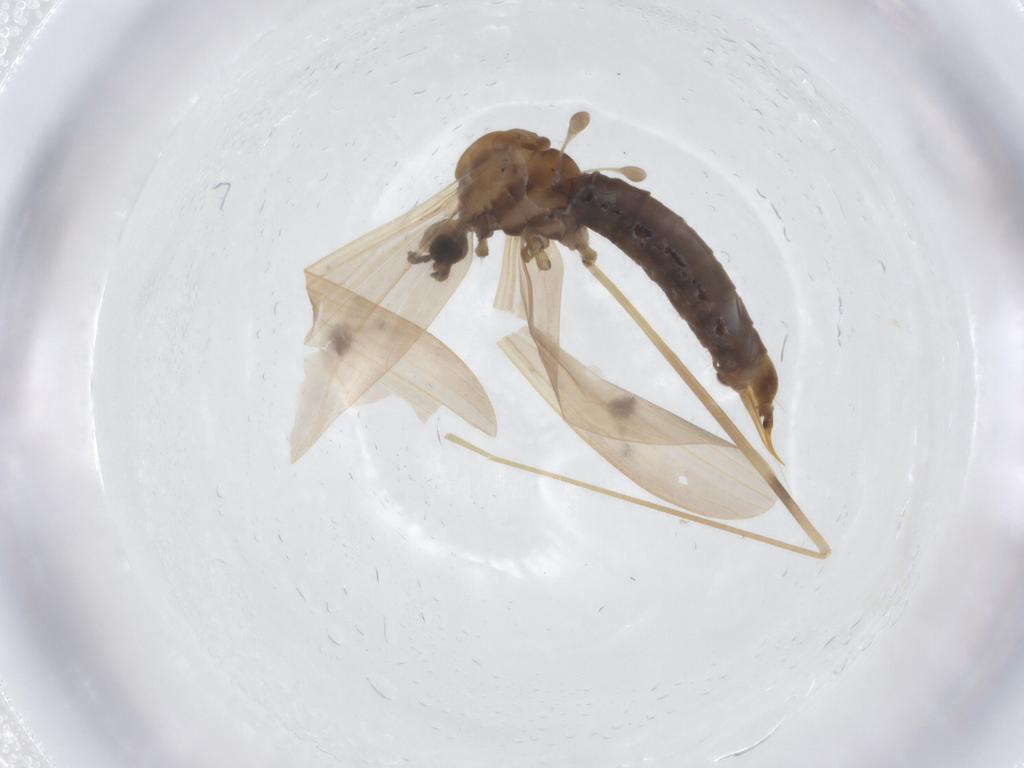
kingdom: Animalia
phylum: Arthropoda
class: Insecta
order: Diptera
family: Limoniidae
